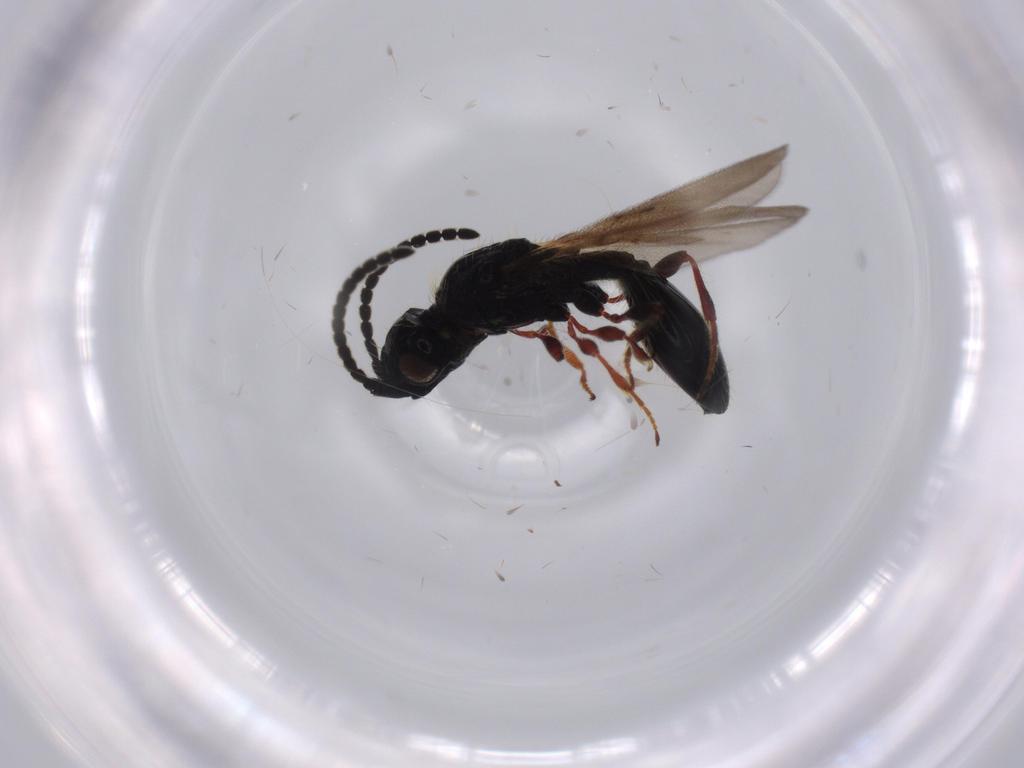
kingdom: Animalia
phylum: Arthropoda
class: Insecta
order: Hymenoptera
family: Diapriidae
